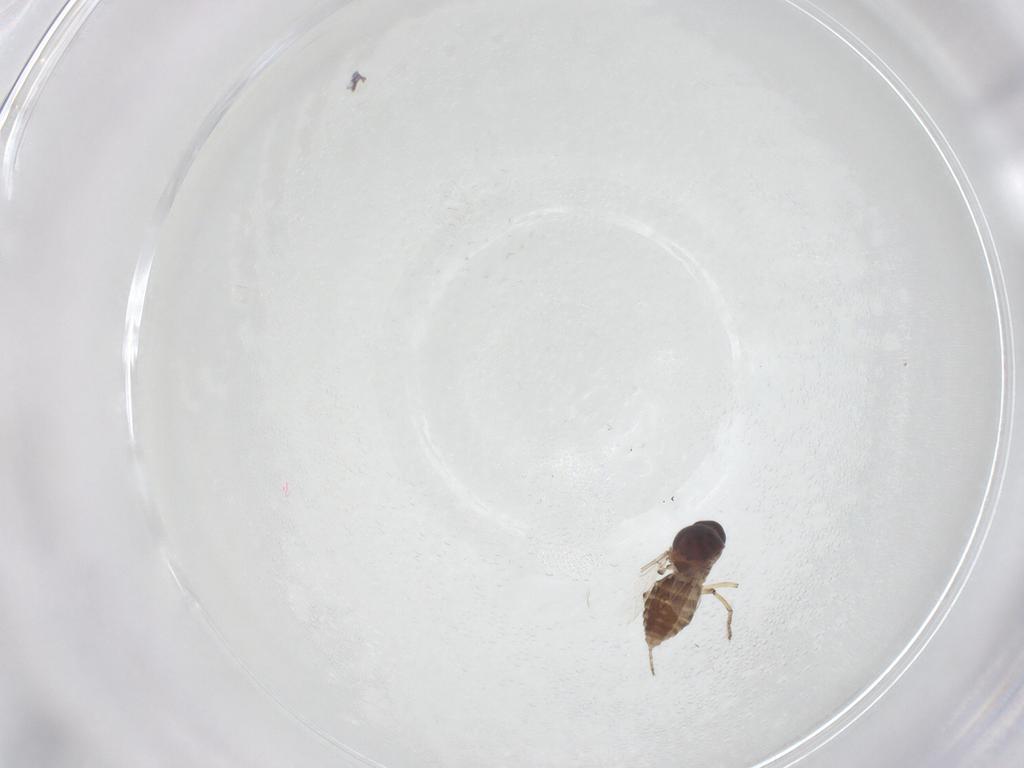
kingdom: Animalia
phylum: Arthropoda
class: Insecta
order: Diptera
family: Ceratopogonidae
